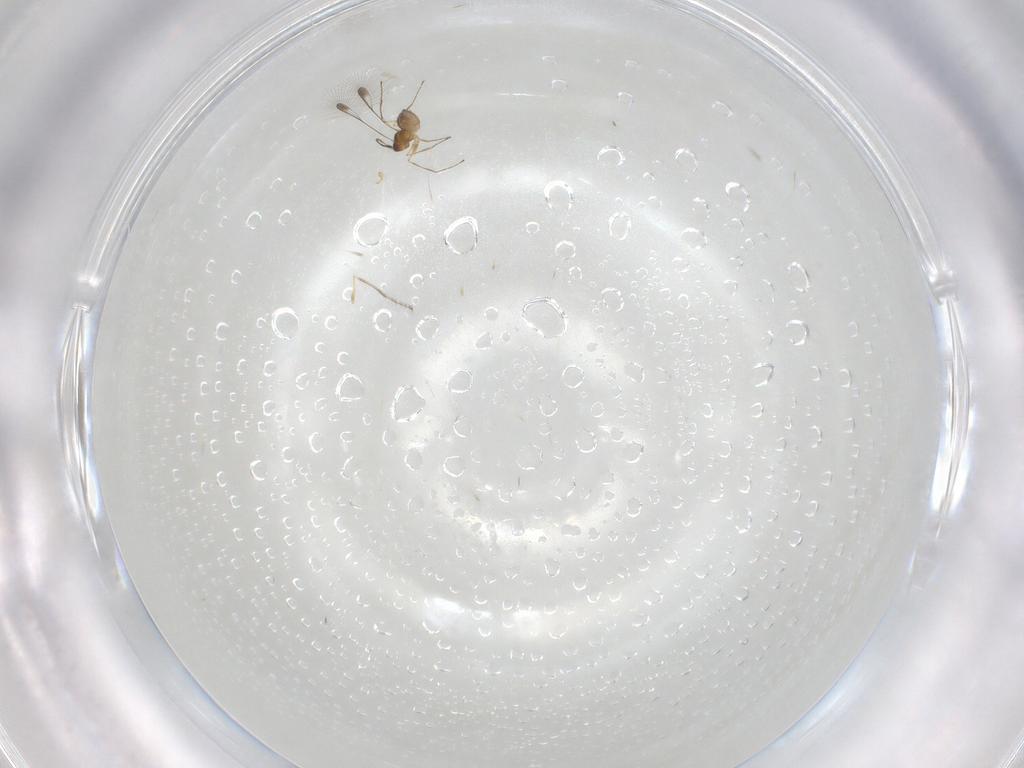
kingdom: Animalia
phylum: Arthropoda
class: Insecta
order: Hymenoptera
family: Mymaridae
